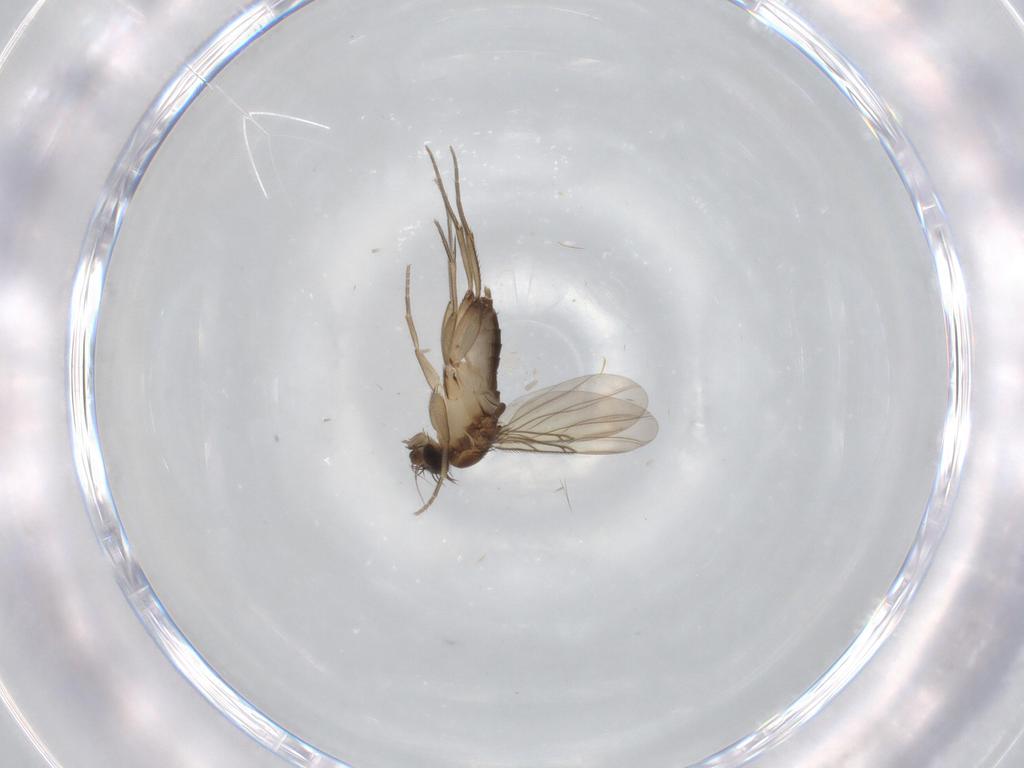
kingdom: Animalia
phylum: Arthropoda
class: Insecta
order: Diptera
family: Phoridae
